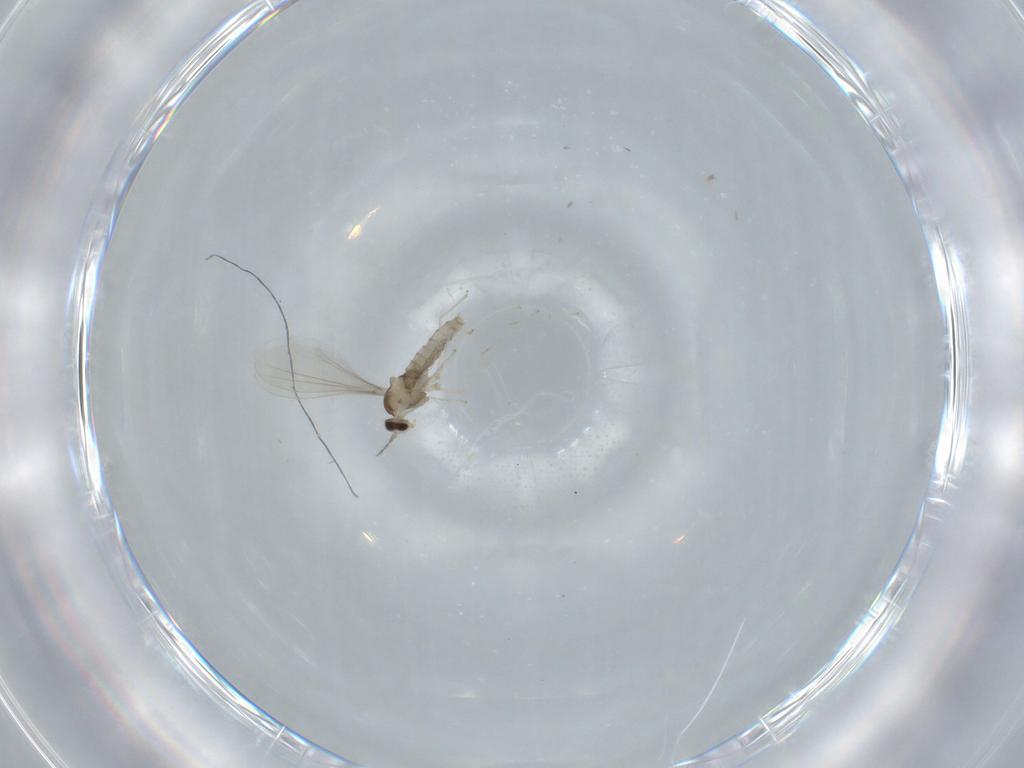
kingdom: Animalia
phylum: Arthropoda
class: Insecta
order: Diptera
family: Cecidomyiidae
